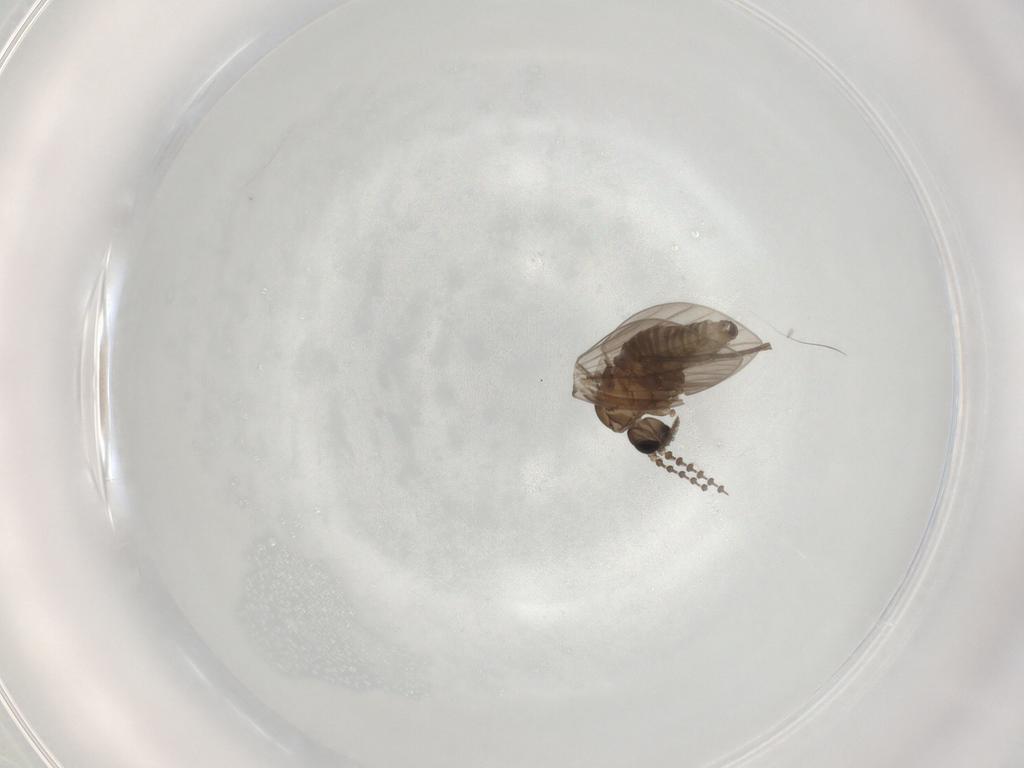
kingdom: Animalia
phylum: Arthropoda
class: Insecta
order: Diptera
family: Psychodidae
